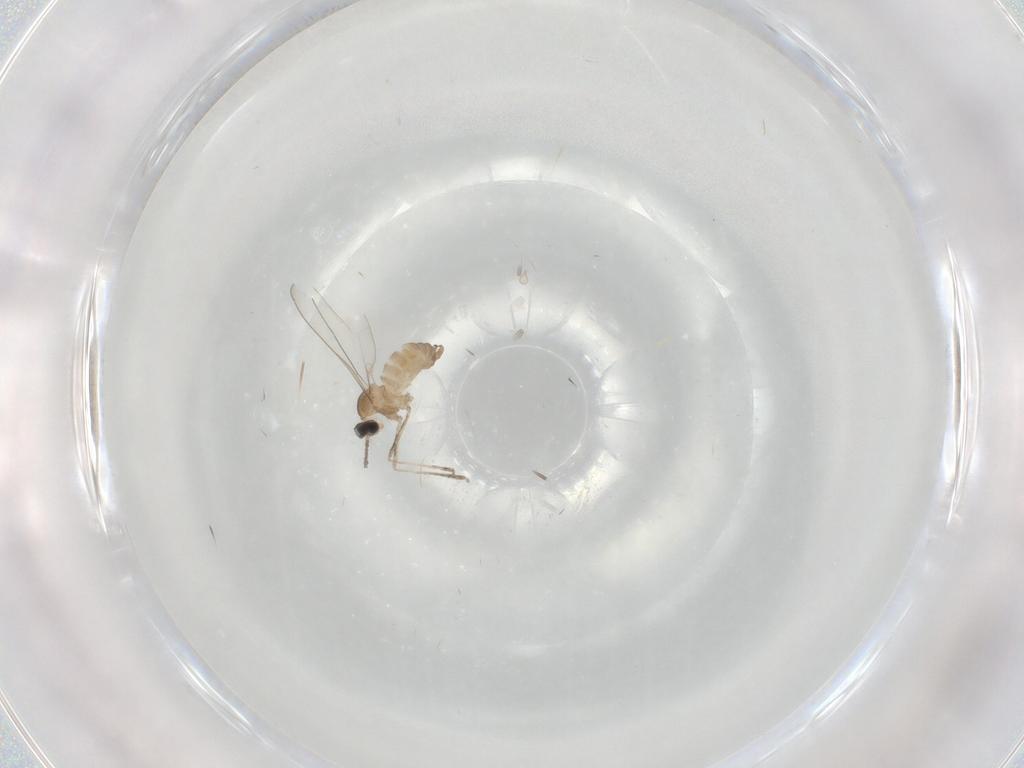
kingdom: Animalia
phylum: Arthropoda
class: Insecta
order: Diptera
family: Cecidomyiidae
